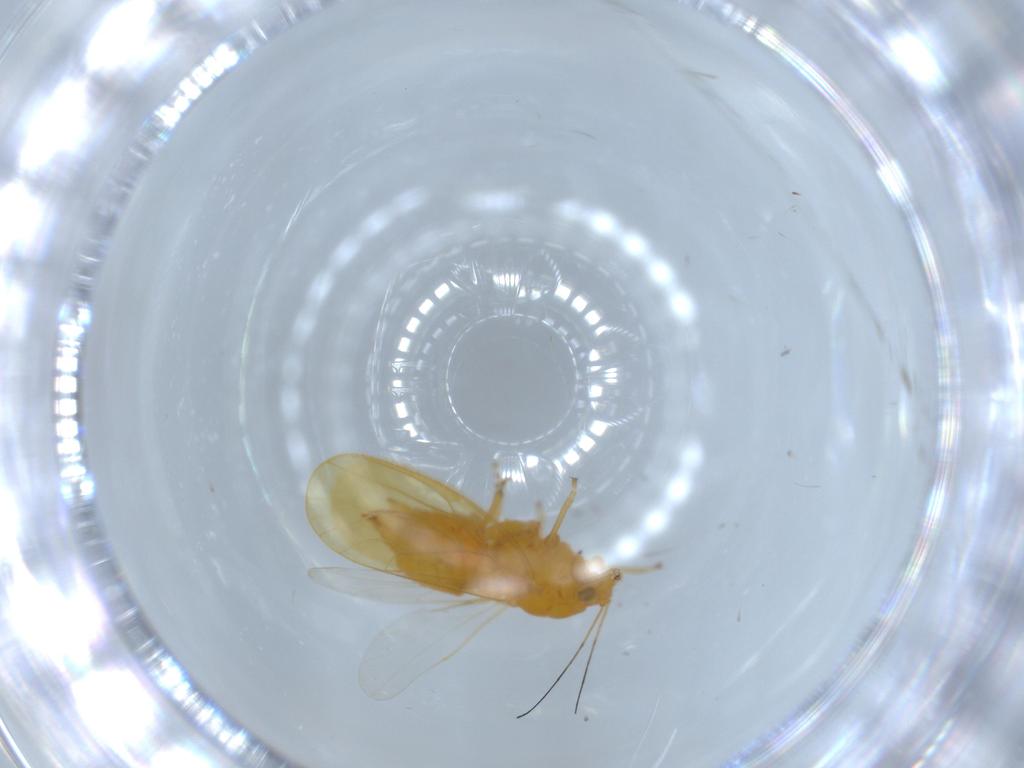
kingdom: Animalia
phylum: Arthropoda
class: Insecta
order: Hemiptera
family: Psyllidae
